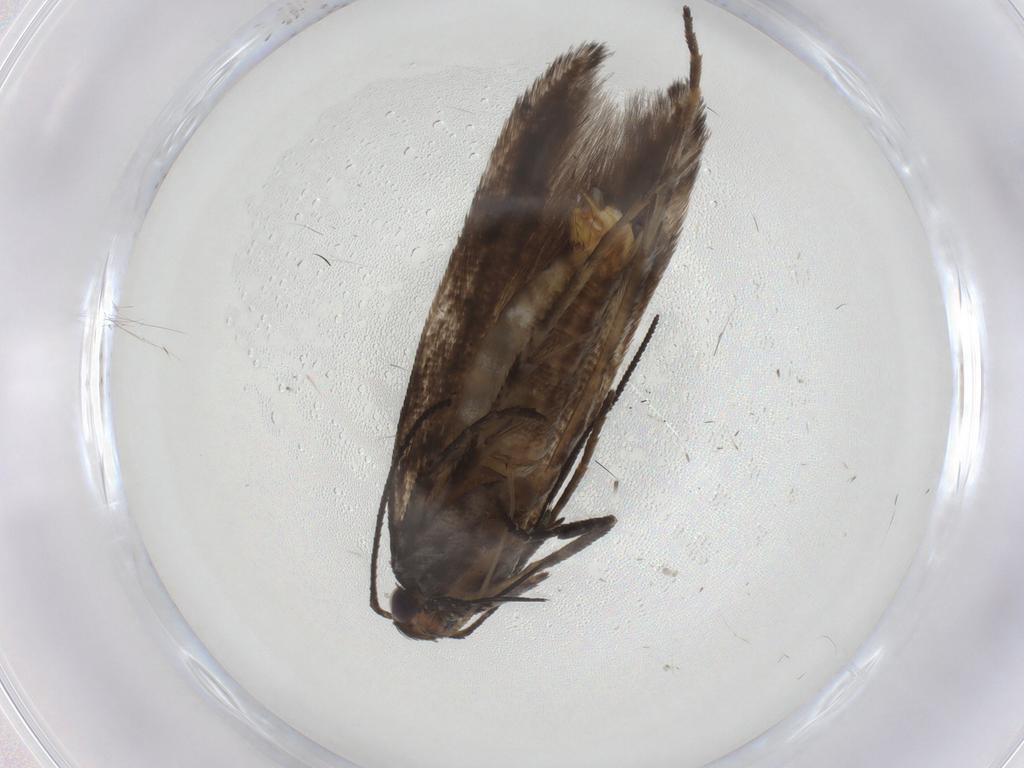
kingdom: Animalia
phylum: Arthropoda
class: Insecta
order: Lepidoptera
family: Gelechiidae
